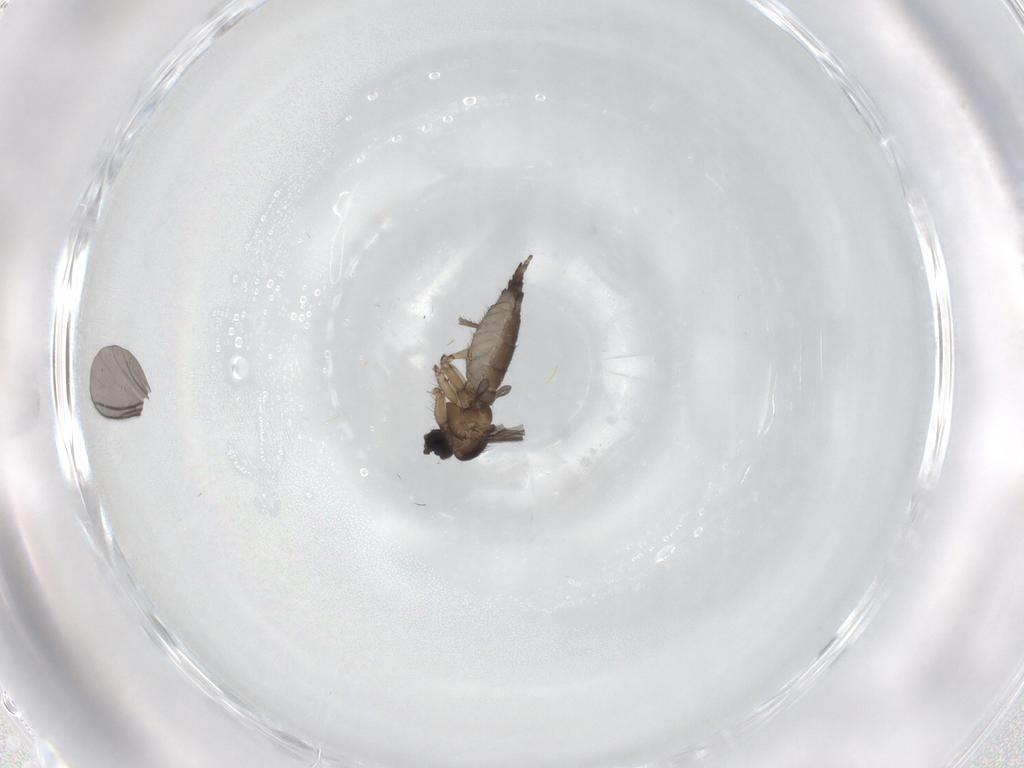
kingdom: Animalia
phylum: Arthropoda
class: Insecta
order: Diptera
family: Sciaridae
